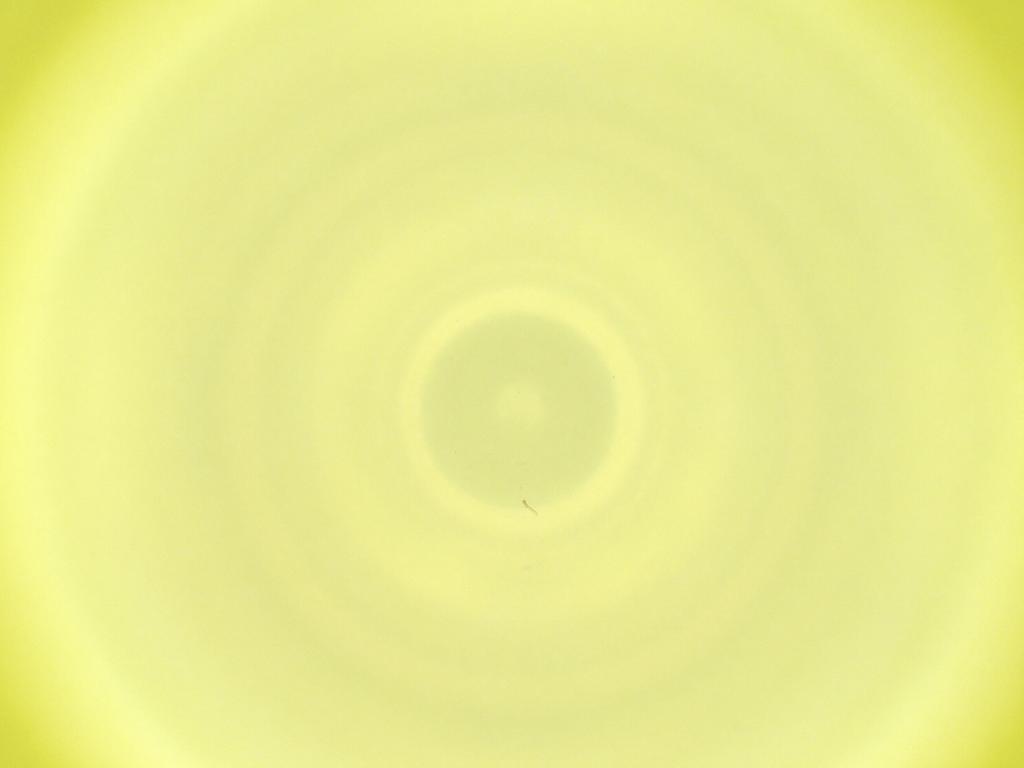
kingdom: Animalia
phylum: Arthropoda
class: Insecta
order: Diptera
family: Cecidomyiidae
